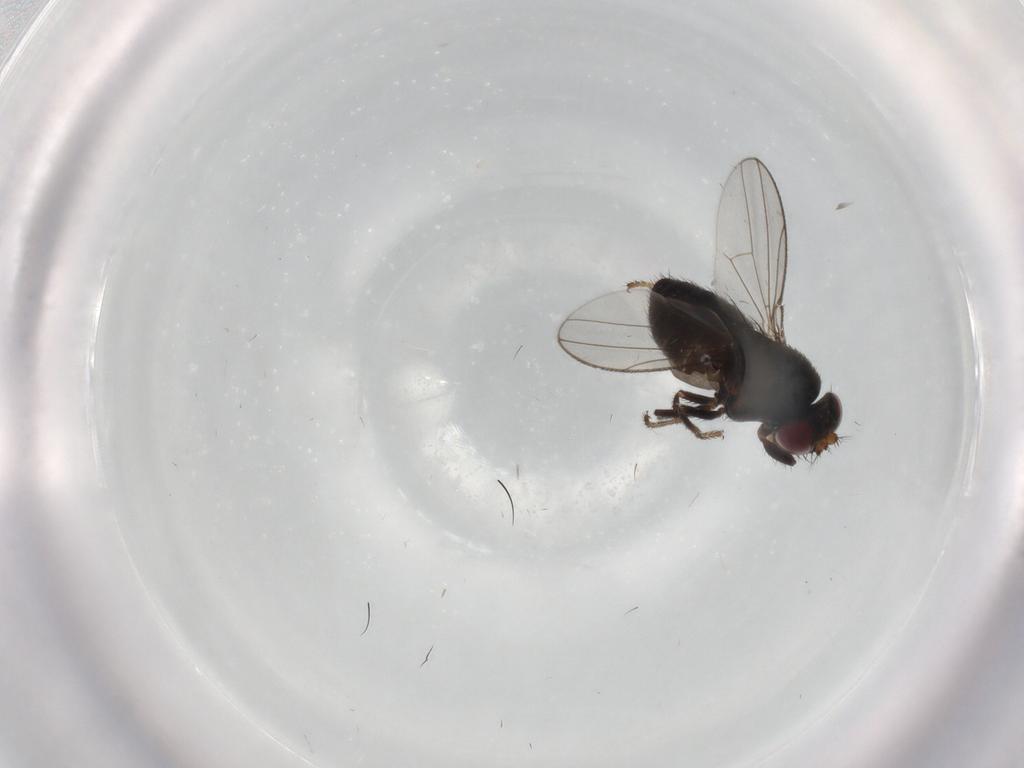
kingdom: Animalia
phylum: Arthropoda
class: Insecta
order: Diptera
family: Ephydridae
